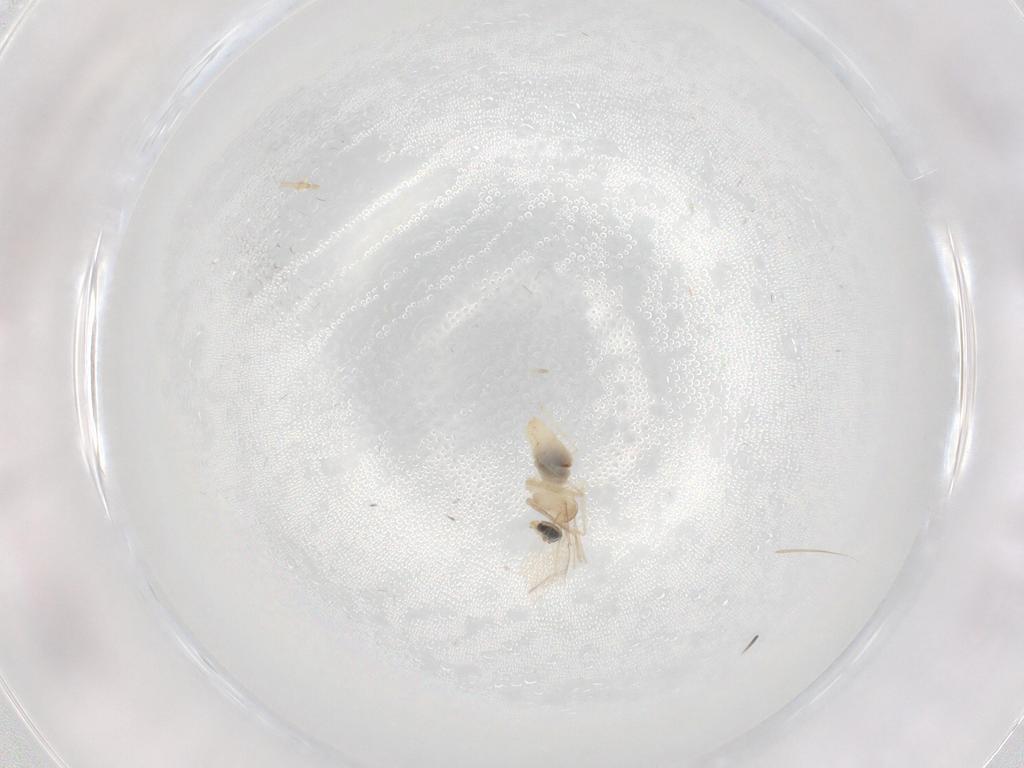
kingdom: Animalia
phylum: Arthropoda
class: Insecta
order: Diptera
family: Cecidomyiidae
